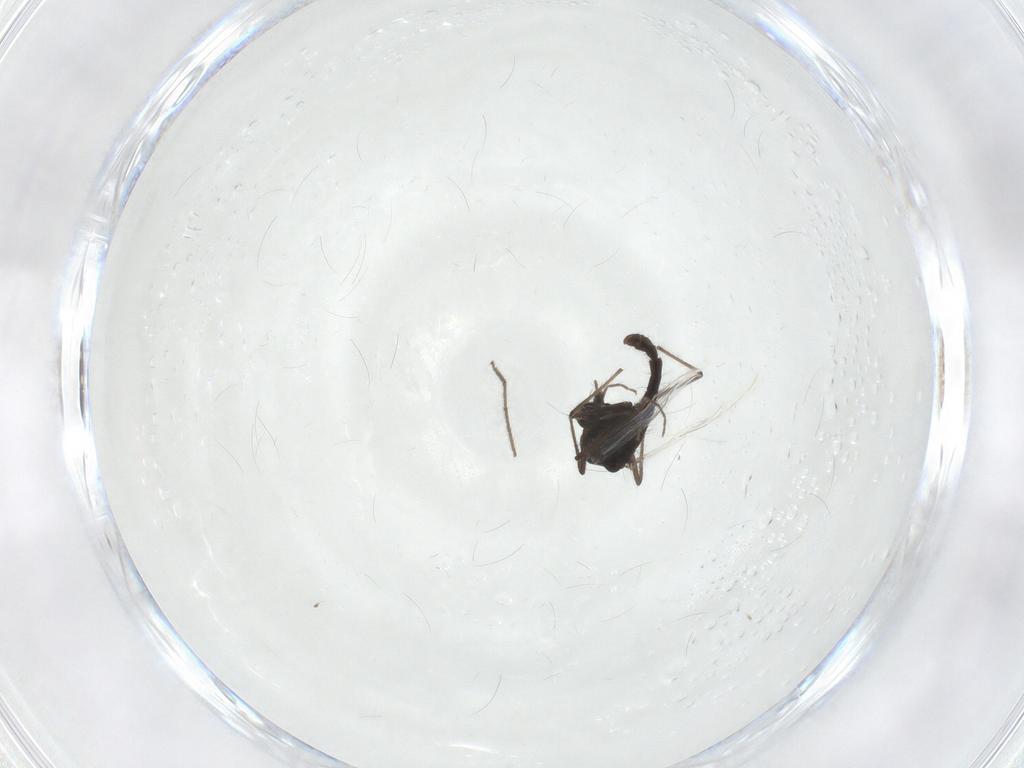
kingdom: Animalia
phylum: Arthropoda
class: Insecta
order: Diptera
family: Chironomidae
